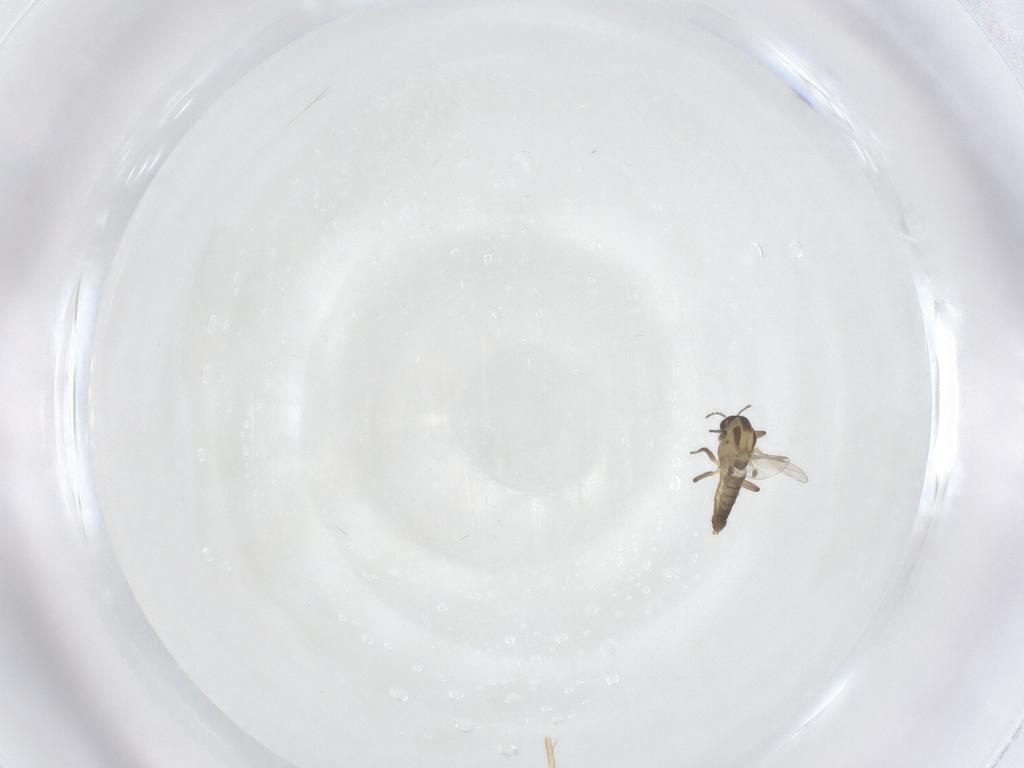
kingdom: Animalia
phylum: Arthropoda
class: Insecta
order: Diptera
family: Chironomidae
